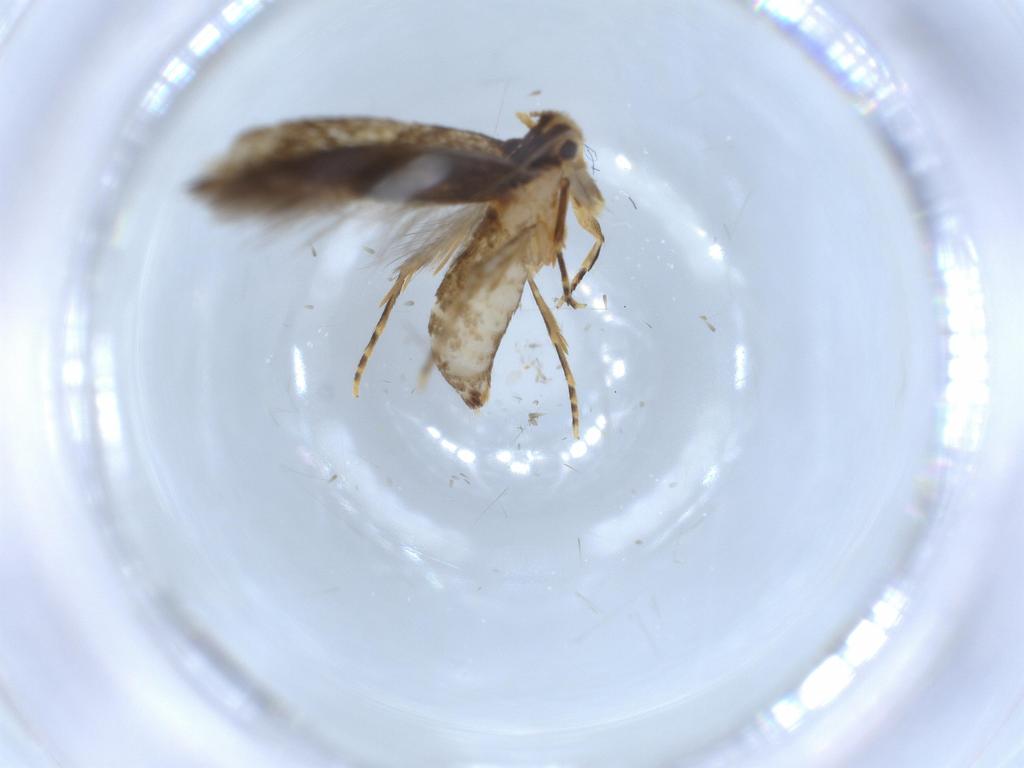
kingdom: Animalia
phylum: Arthropoda
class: Insecta
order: Lepidoptera
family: Tineidae
